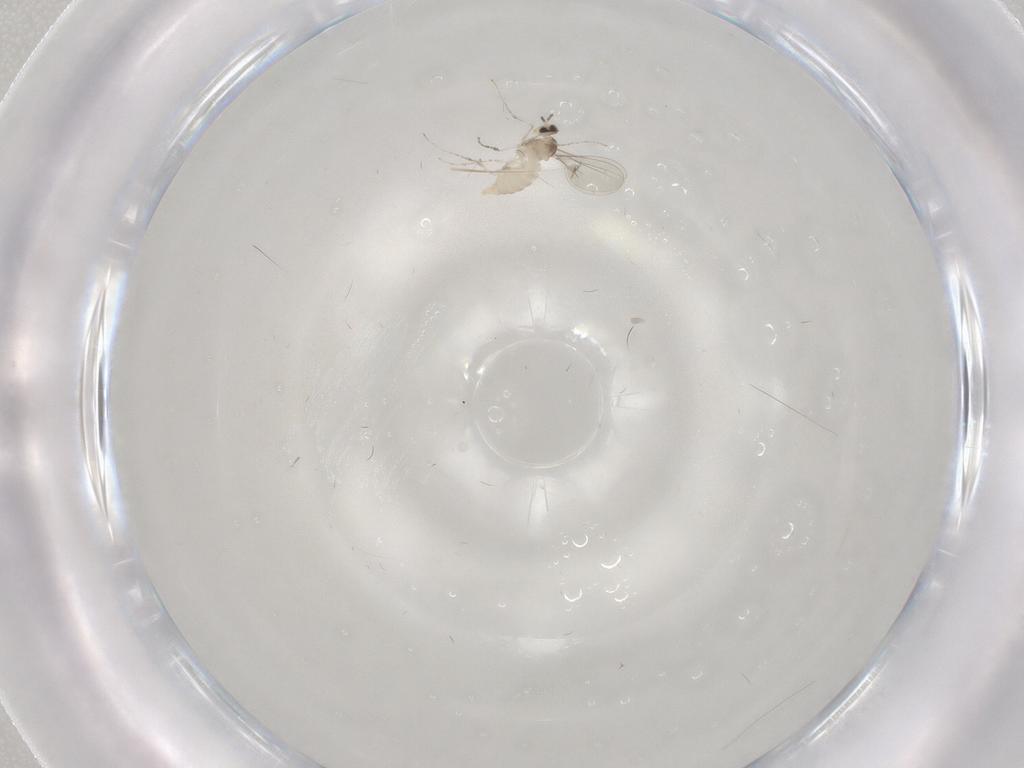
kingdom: Animalia
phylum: Arthropoda
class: Insecta
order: Diptera
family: Cecidomyiidae
